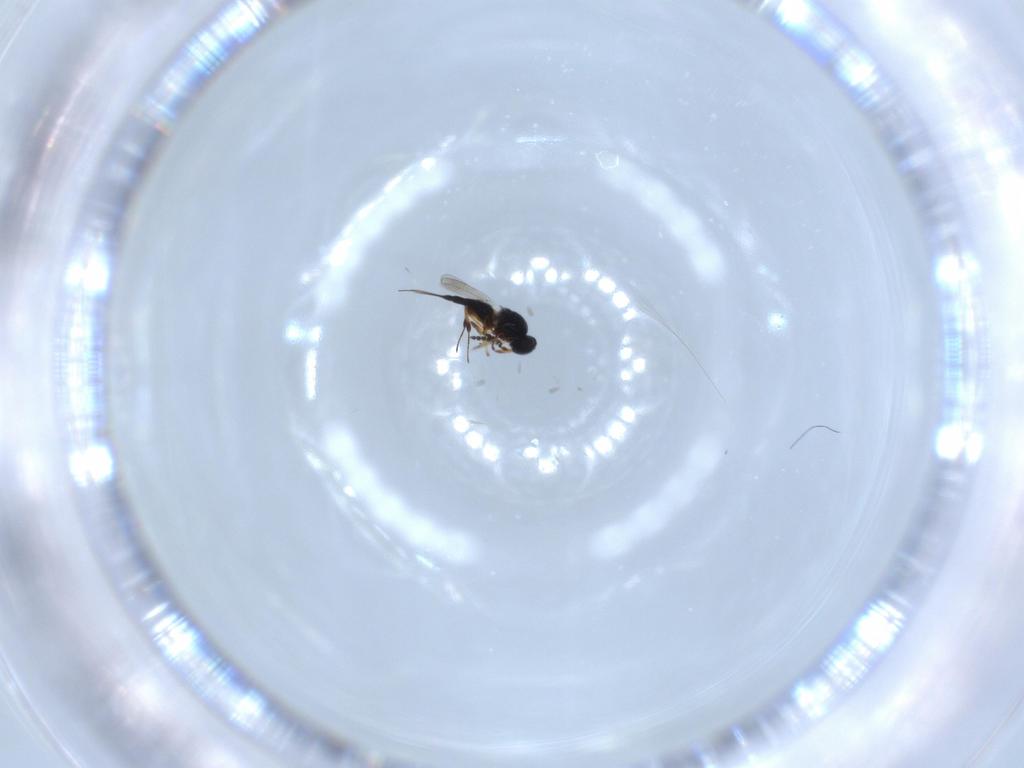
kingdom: Animalia
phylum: Arthropoda
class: Insecta
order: Hymenoptera
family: Platygastridae
